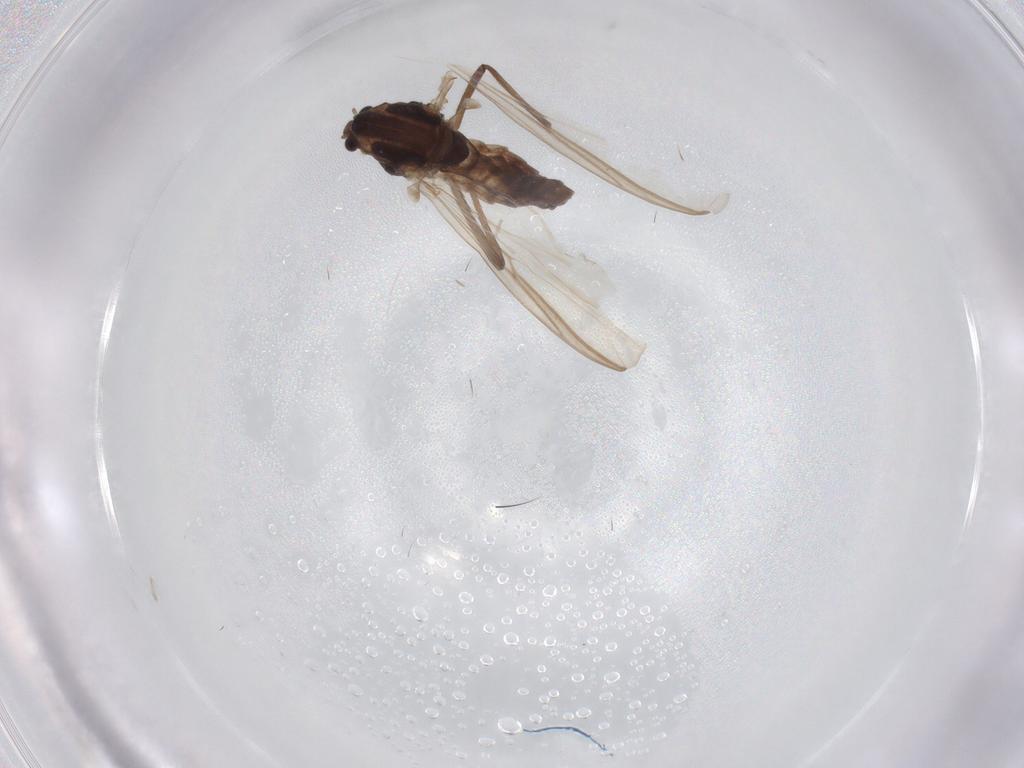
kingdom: Animalia
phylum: Arthropoda
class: Insecta
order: Diptera
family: Chironomidae
